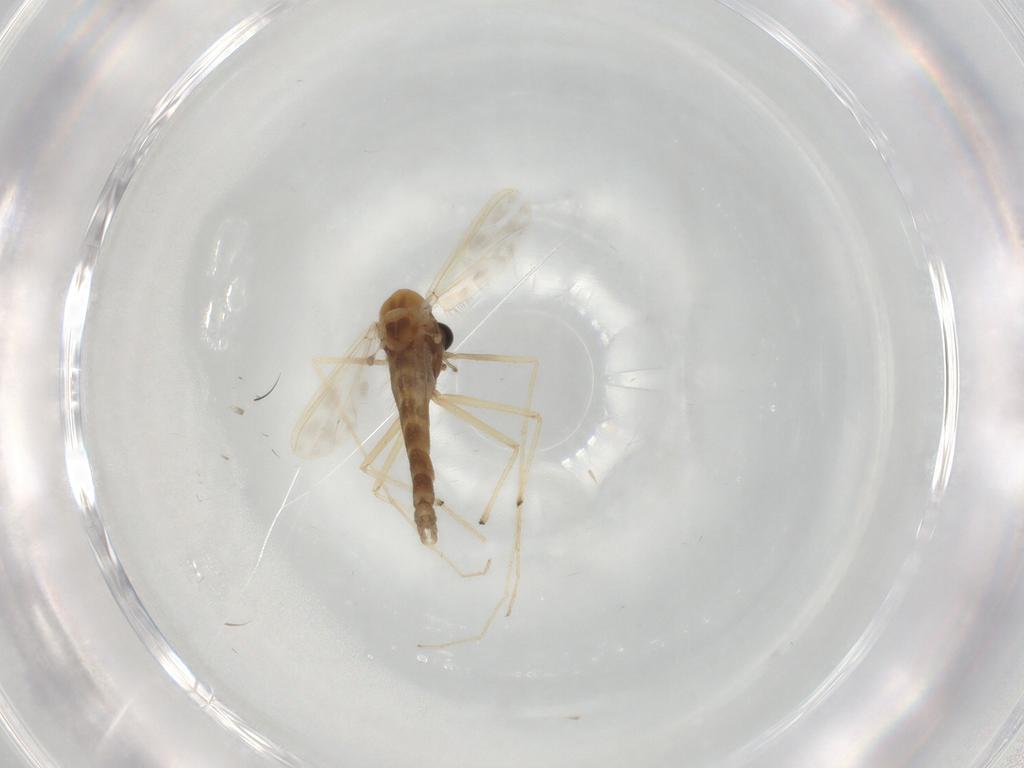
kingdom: Animalia
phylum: Arthropoda
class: Insecta
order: Diptera
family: Chironomidae
